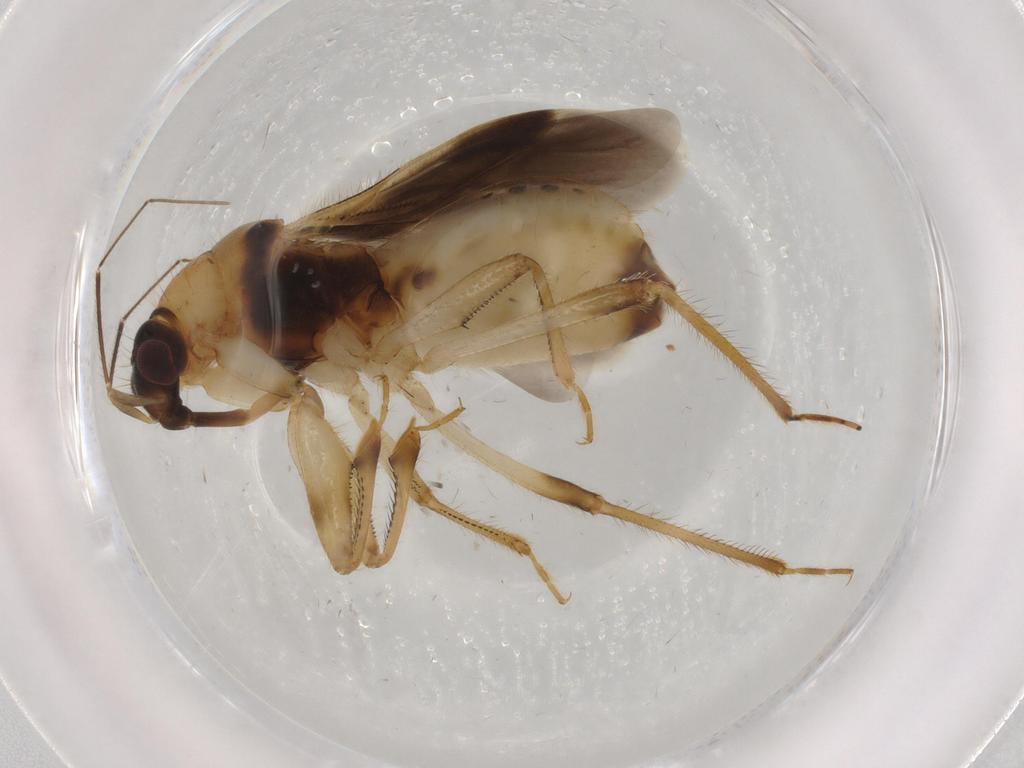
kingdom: Animalia
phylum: Arthropoda
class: Insecta
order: Hemiptera
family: Nabidae
